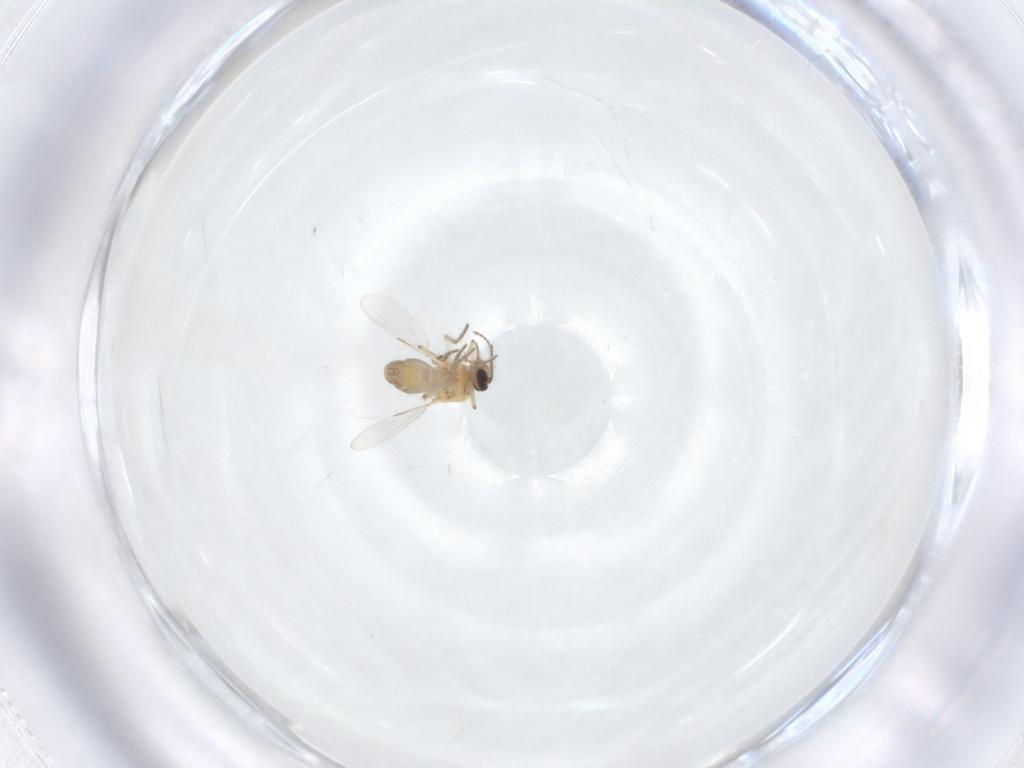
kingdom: Animalia
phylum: Arthropoda
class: Insecta
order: Diptera
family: Ceratopogonidae
